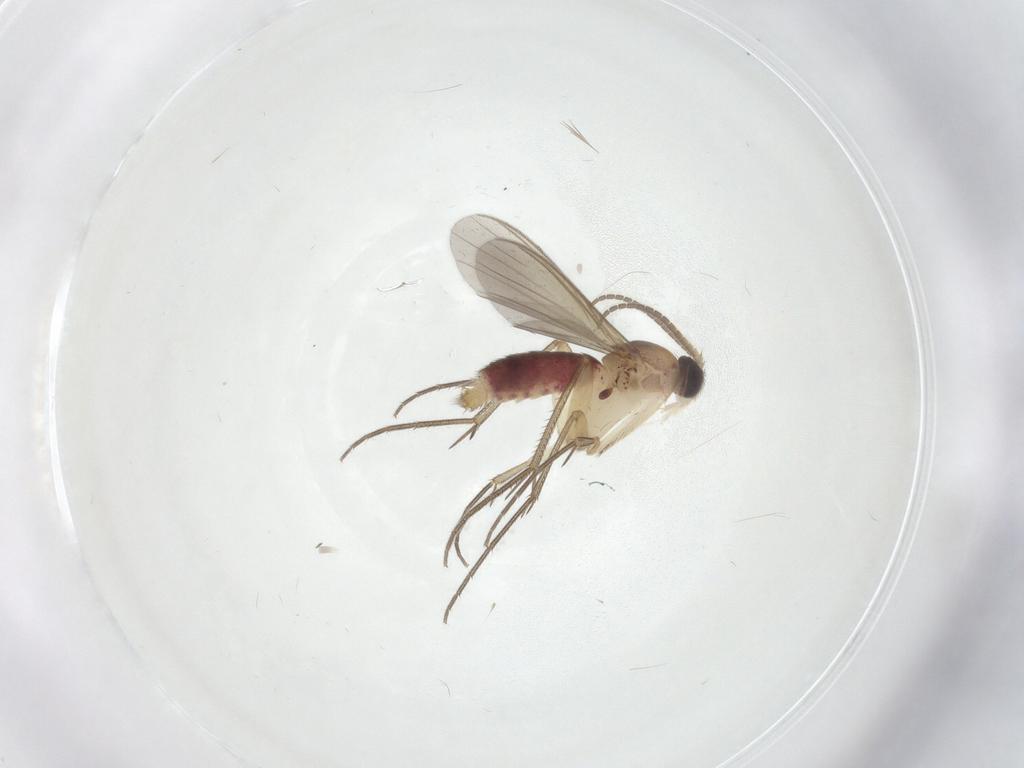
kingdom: Animalia
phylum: Arthropoda
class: Insecta
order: Diptera
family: Mycetophilidae
